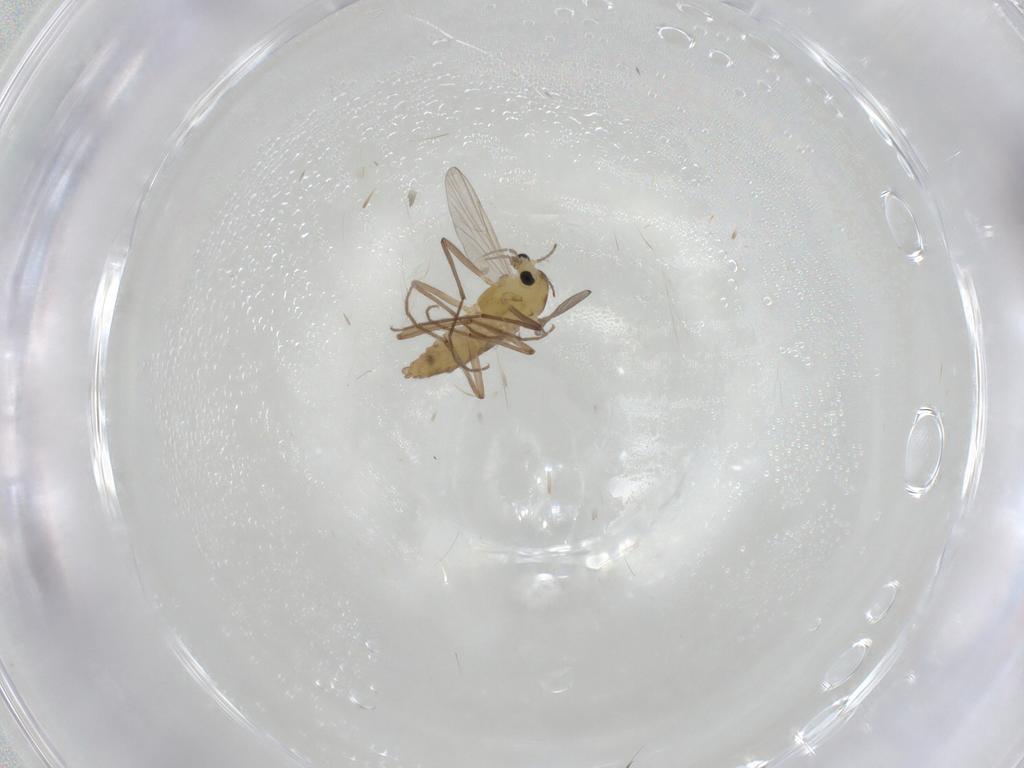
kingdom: Animalia
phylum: Arthropoda
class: Insecta
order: Diptera
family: Chironomidae
